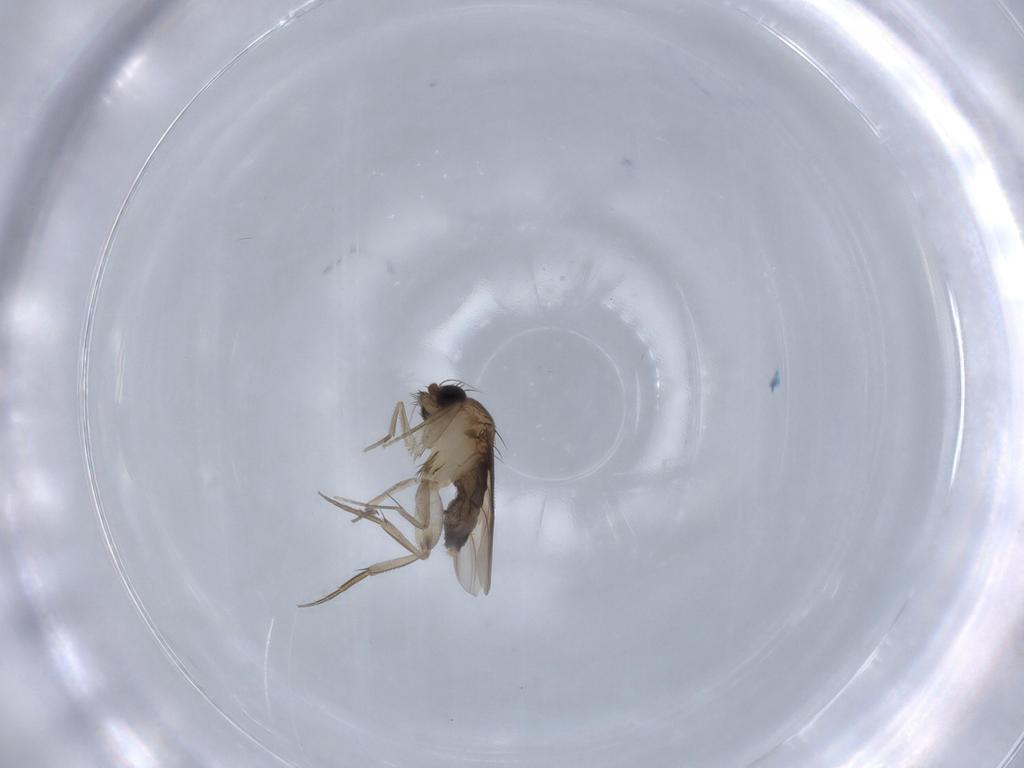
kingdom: Animalia
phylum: Arthropoda
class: Insecta
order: Diptera
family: Phoridae
